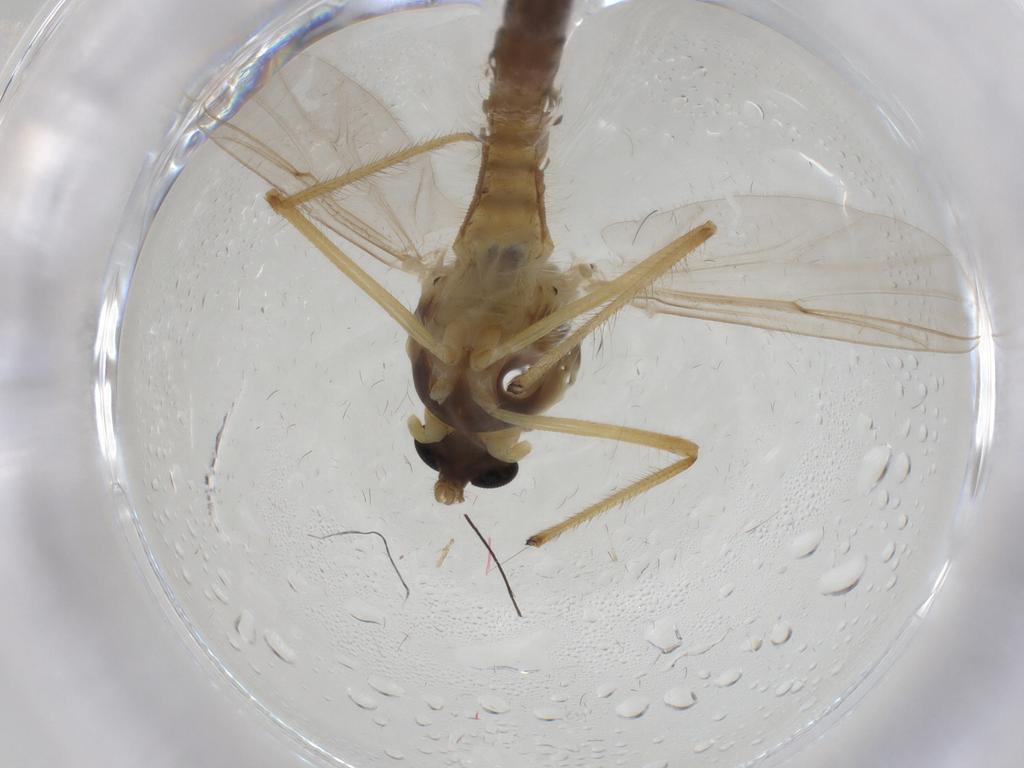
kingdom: Animalia
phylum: Arthropoda
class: Insecta
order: Diptera
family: Chironomidae
